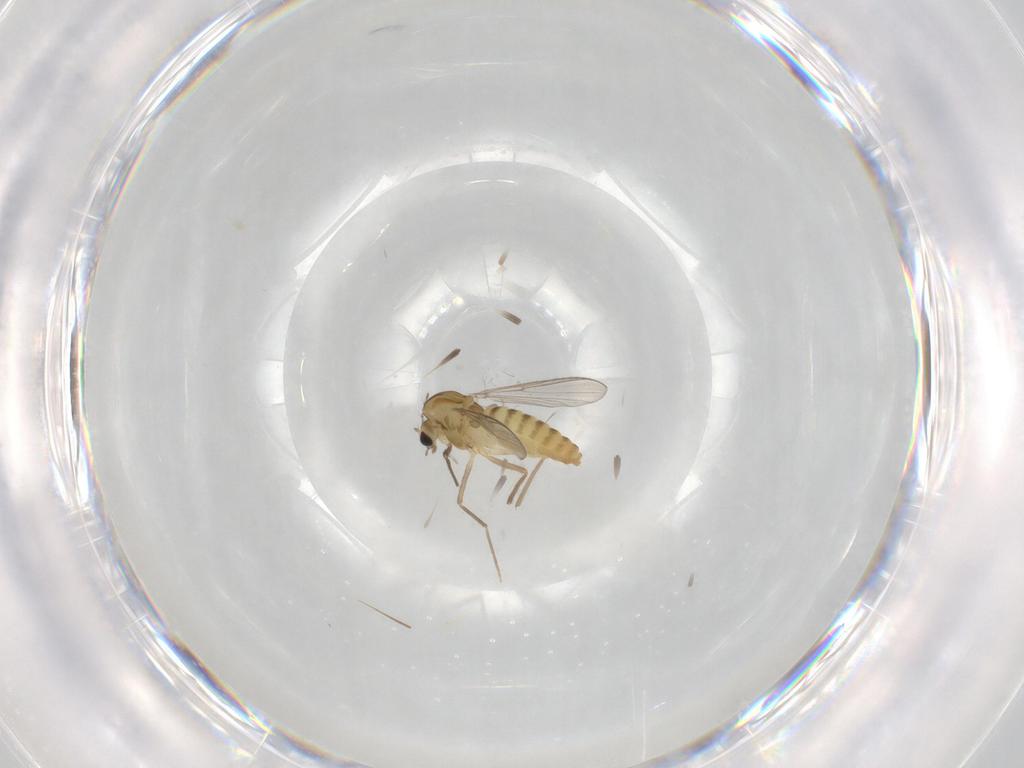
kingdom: Animalia
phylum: Arthropoda
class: Insecta
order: Diptera
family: Chironomidae
